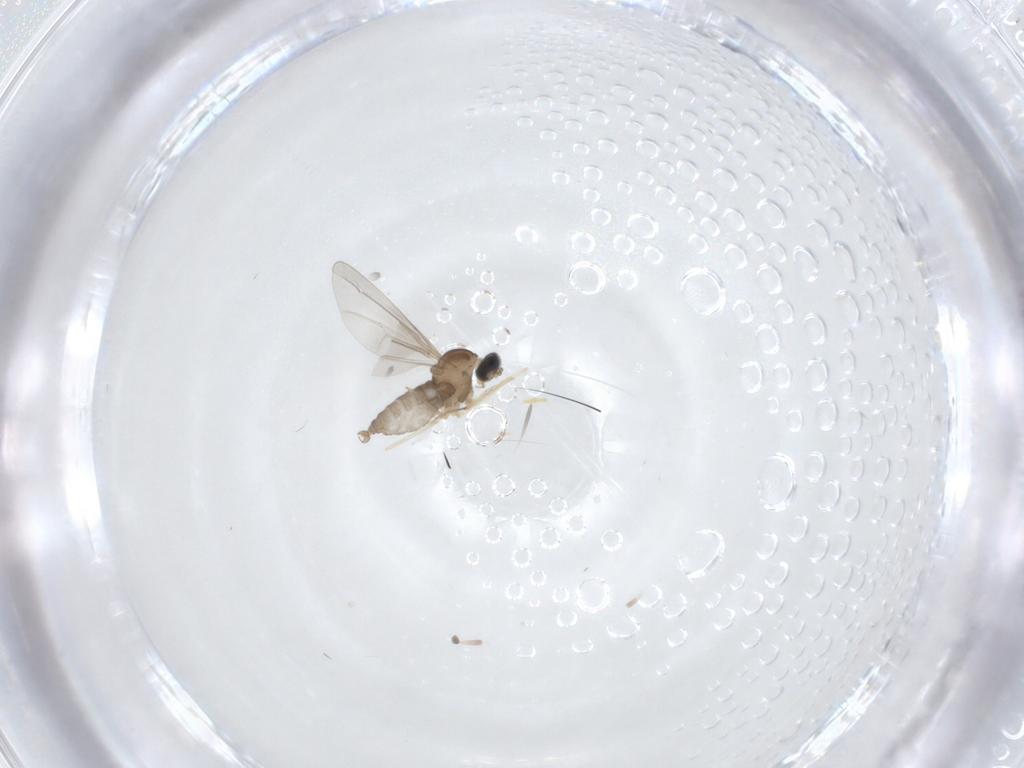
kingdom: Animalia
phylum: Arthropoda
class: Insecta
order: Diptera
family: Cecidomyiidae
